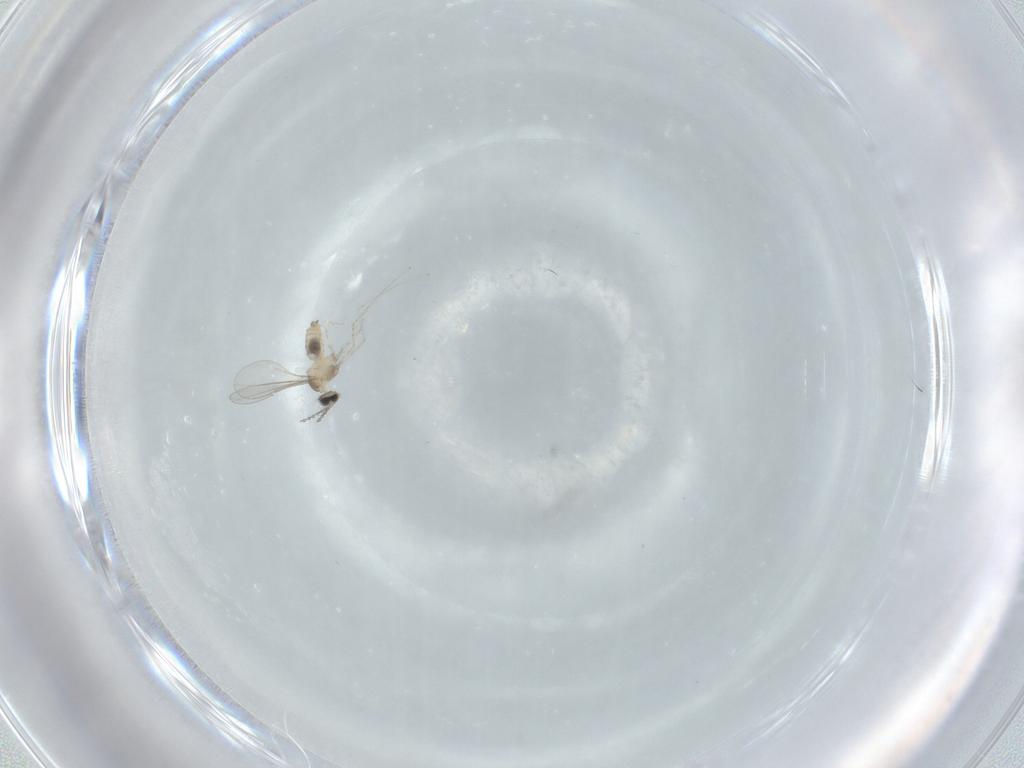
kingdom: Animalia
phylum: Arthropoda
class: Insecta
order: Diptera
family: Cecidomyiidae
